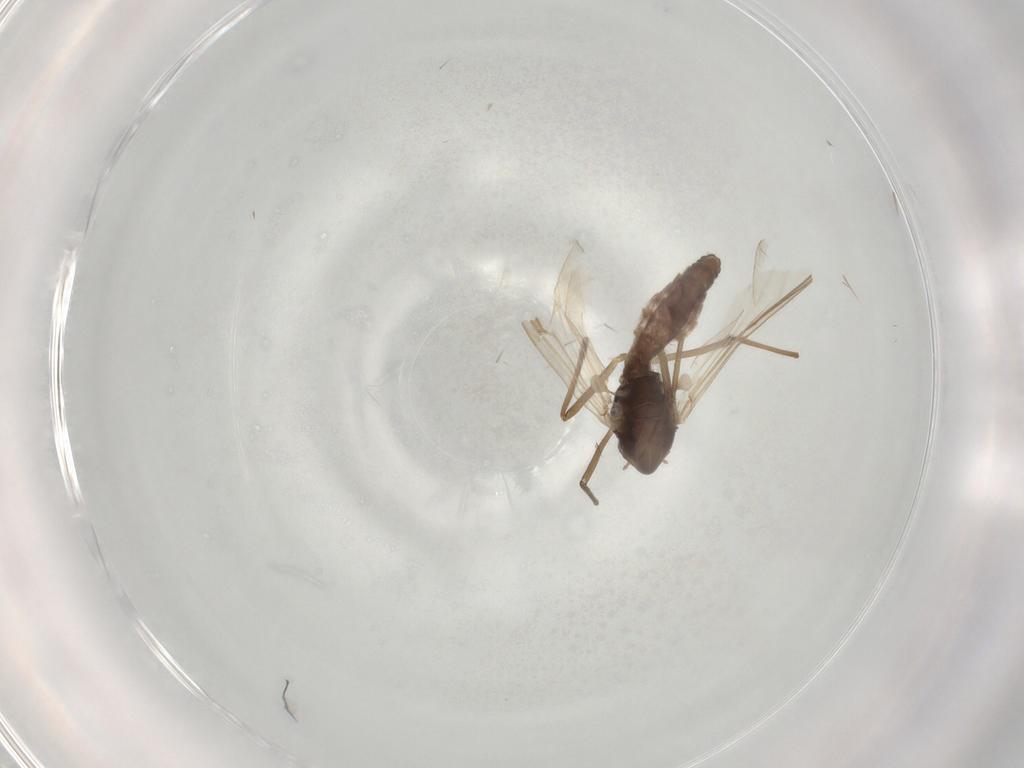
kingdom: Animalia
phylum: Arthropoda
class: Insecta
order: Diptera
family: Chironomidae
